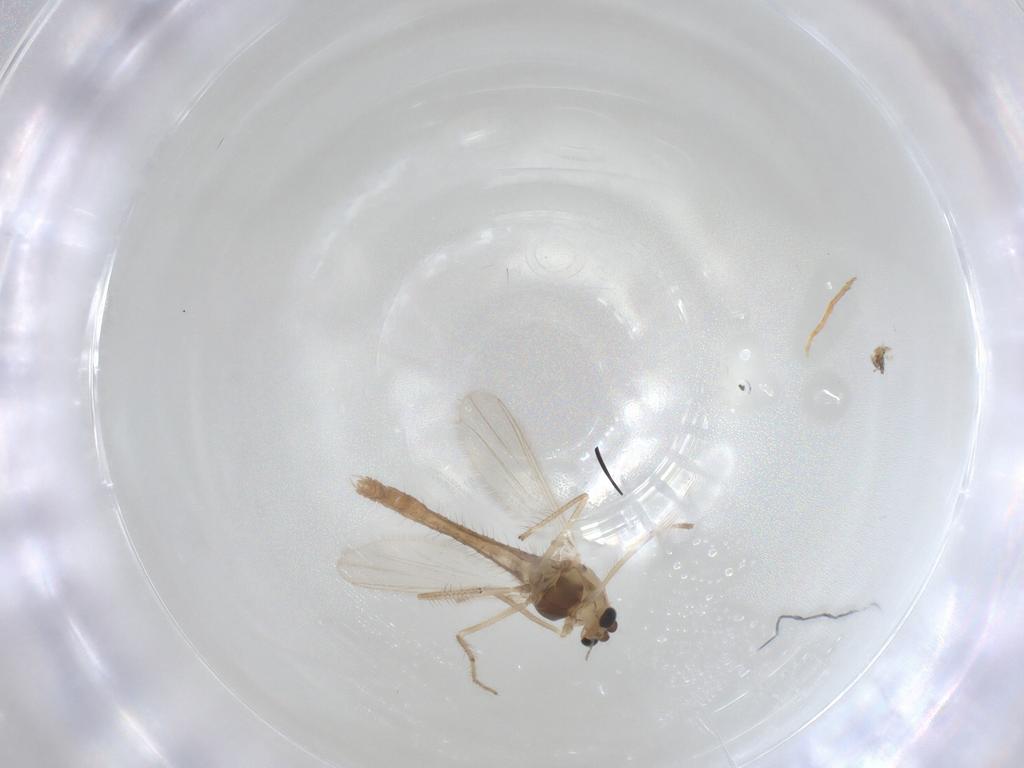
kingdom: Animalia
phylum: Arthropoda
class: Insecta
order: Diptera
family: Chironomidae
